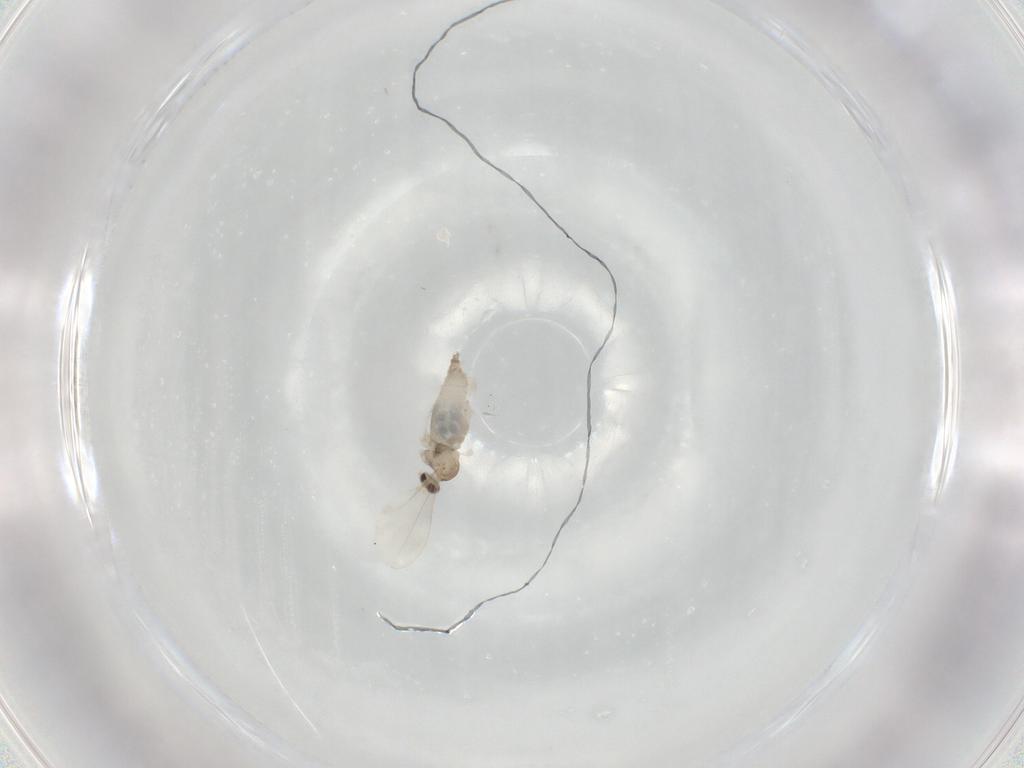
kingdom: Animalia
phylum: Arthropoda
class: Insecta
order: Diptera
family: Cecidomyiidae
